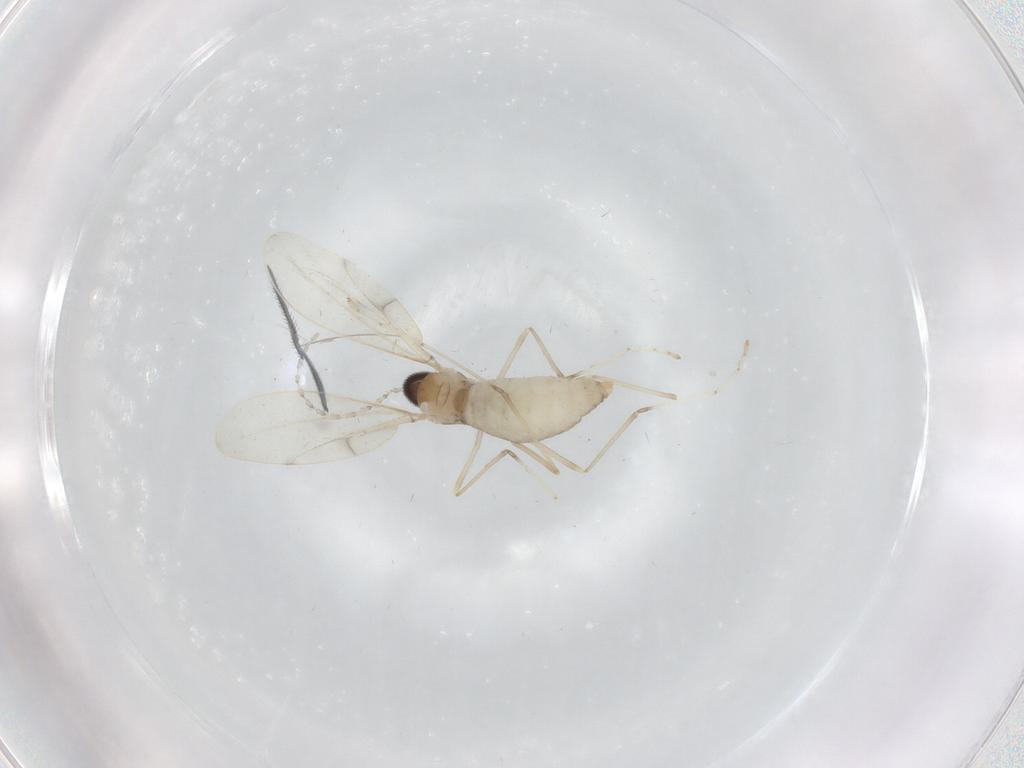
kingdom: Animalia
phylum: Arthropoda
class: Insecta
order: Diptera
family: Cecidomyiidae
